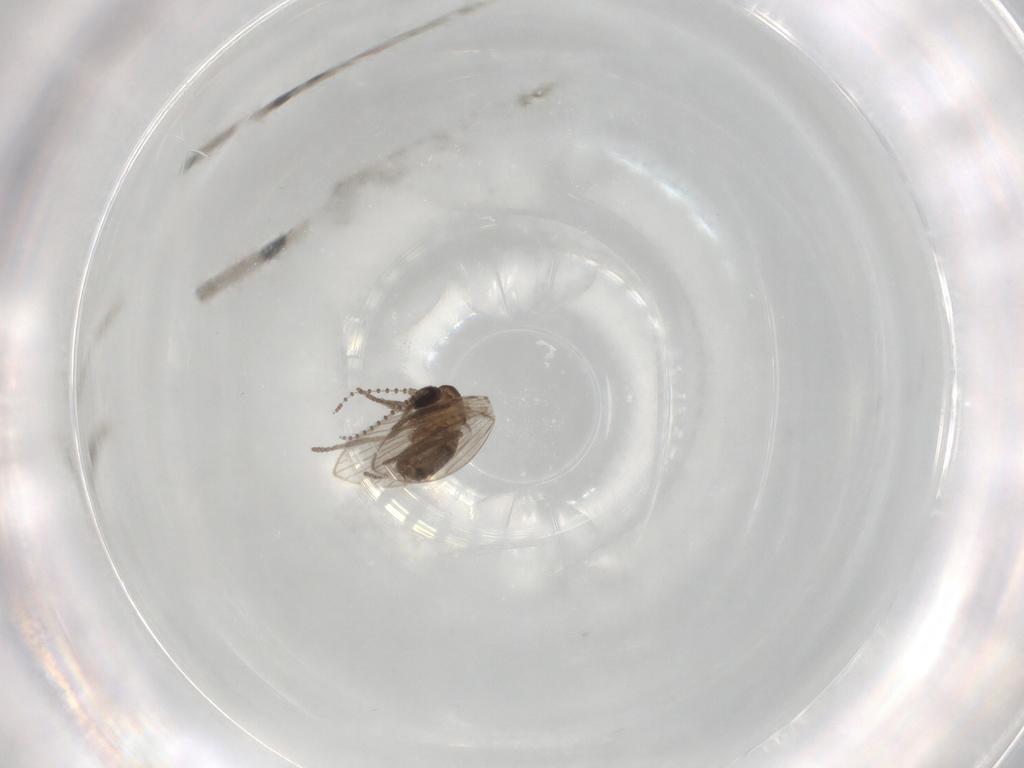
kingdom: Animalia
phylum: Arthropoda
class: Insecta
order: Diptera
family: Psychodidae
